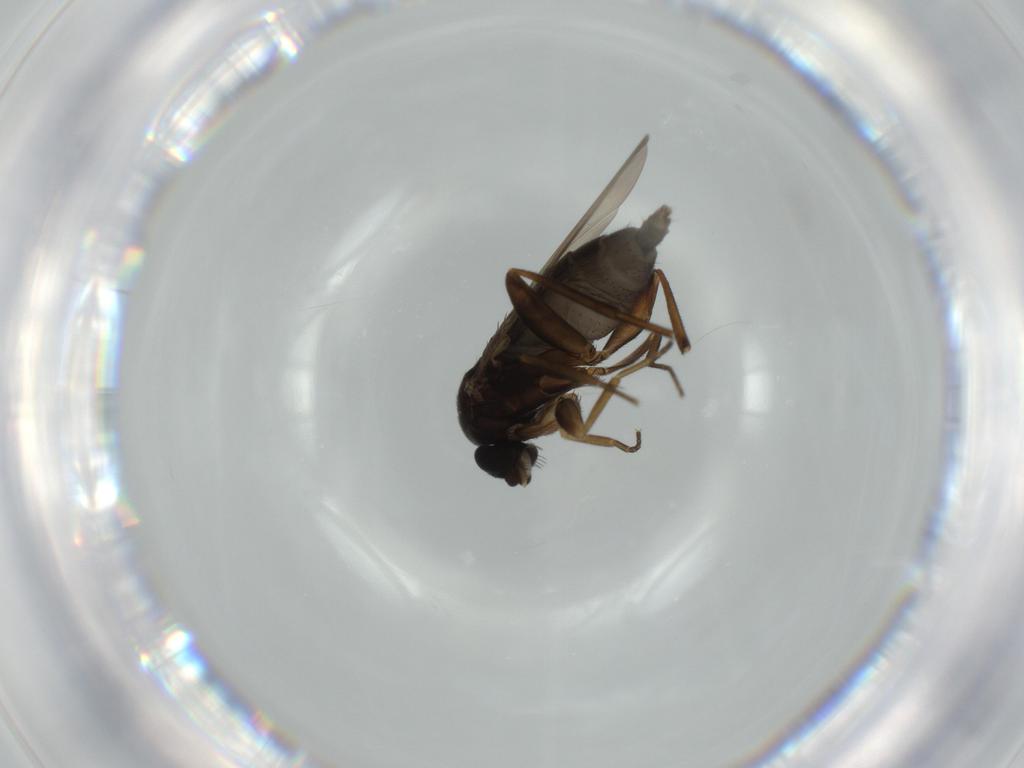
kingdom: Animalia
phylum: Arthropoda
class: Insecta
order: Diptera
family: Phoridae
